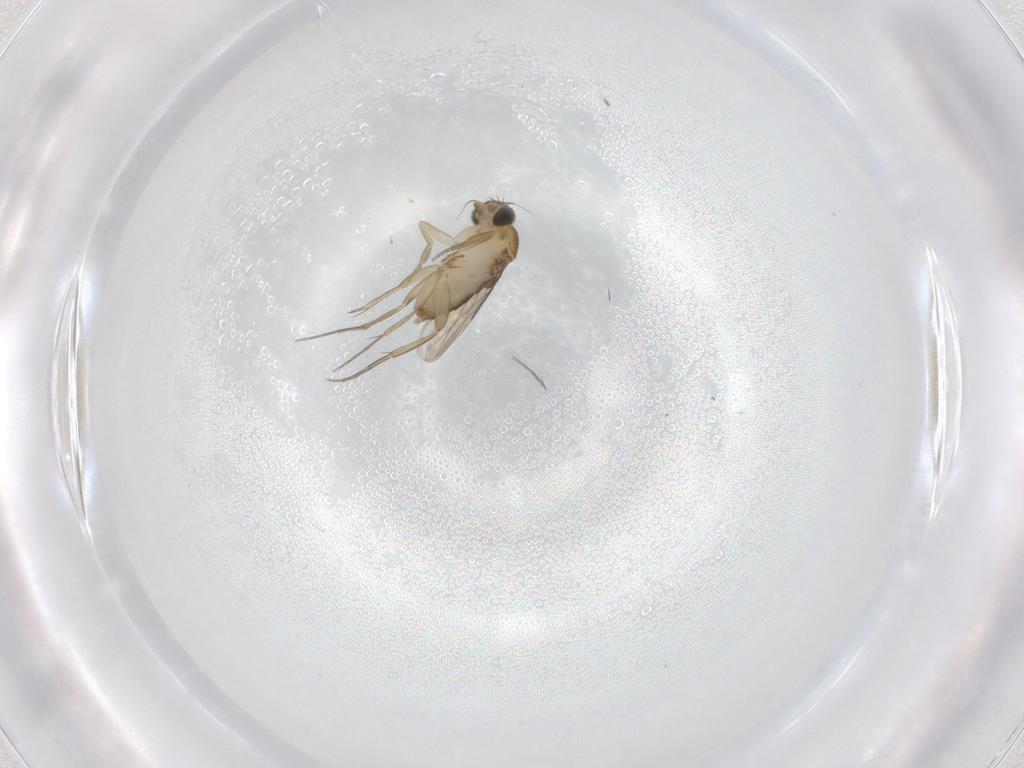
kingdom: Animalia
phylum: Arthropoda
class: Insecta
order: Diptera
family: Phoridae
